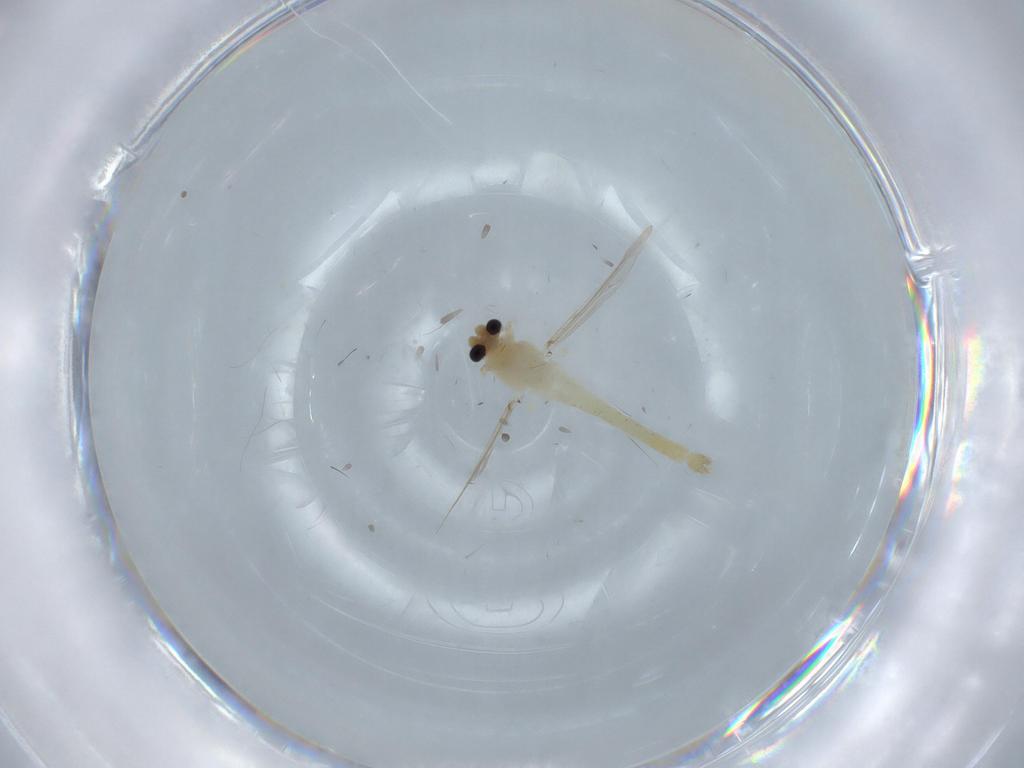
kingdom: Animalia
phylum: Arthropoda
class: Insecta
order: Diptera
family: Chironomidae
